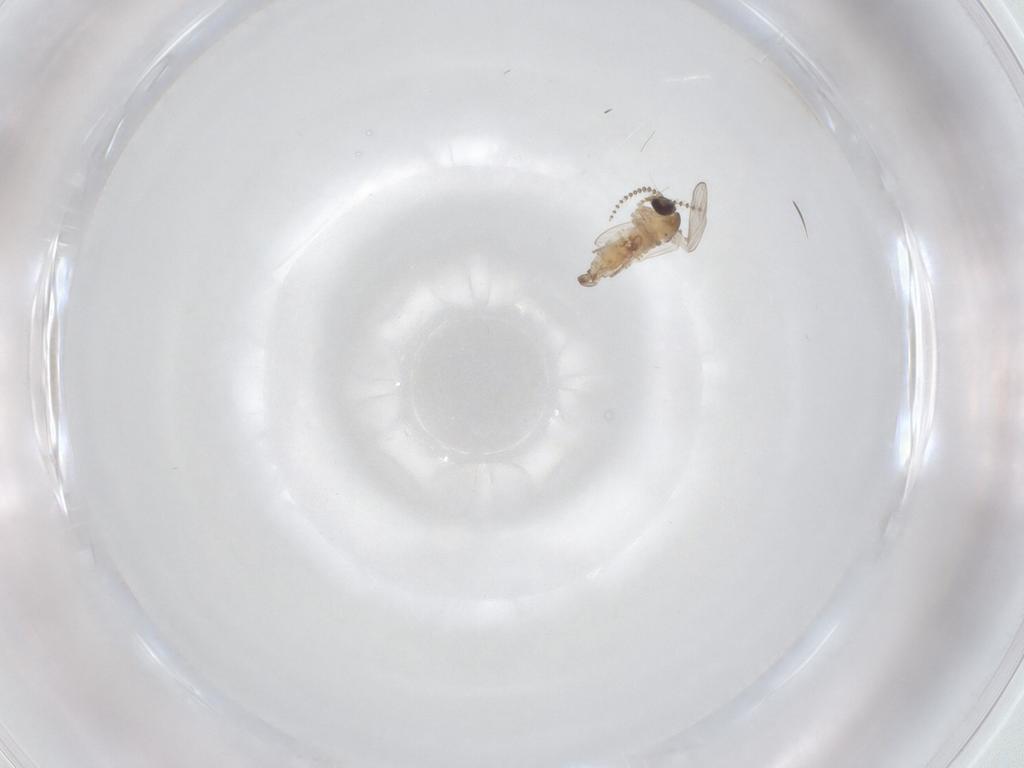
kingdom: Animalia
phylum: Arthropoda
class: Insecta
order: Diptera
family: Psychodidae
